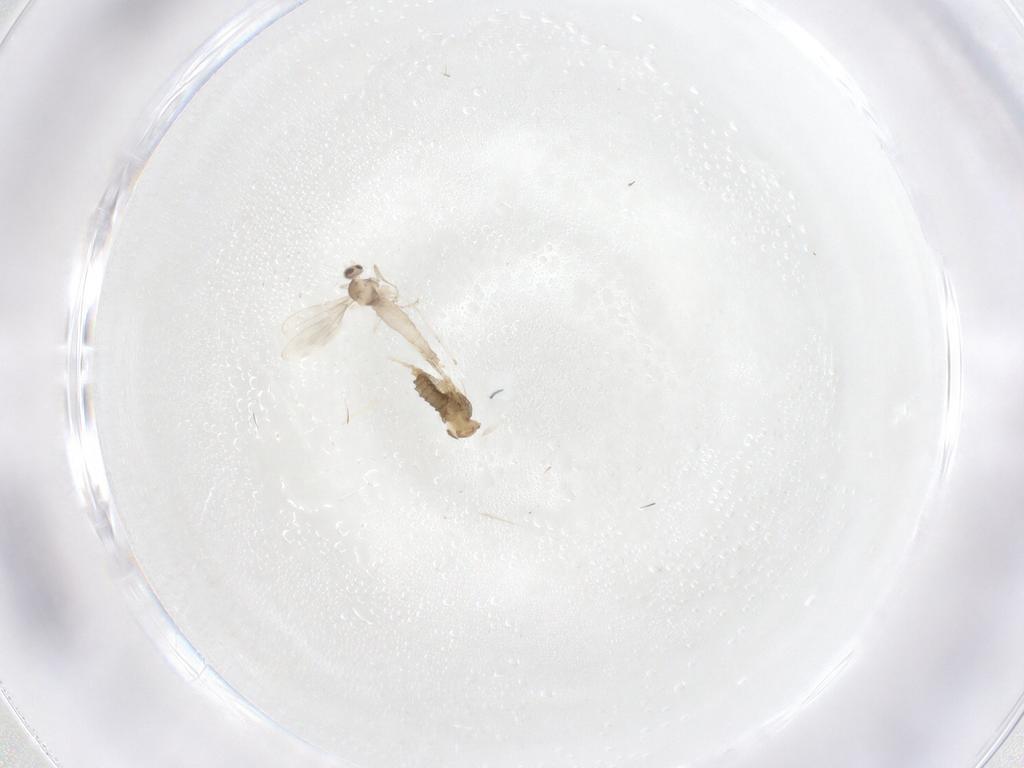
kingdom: Animalia
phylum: Arthropoda
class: Insecta
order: Diptera
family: Cecidomyiidae
